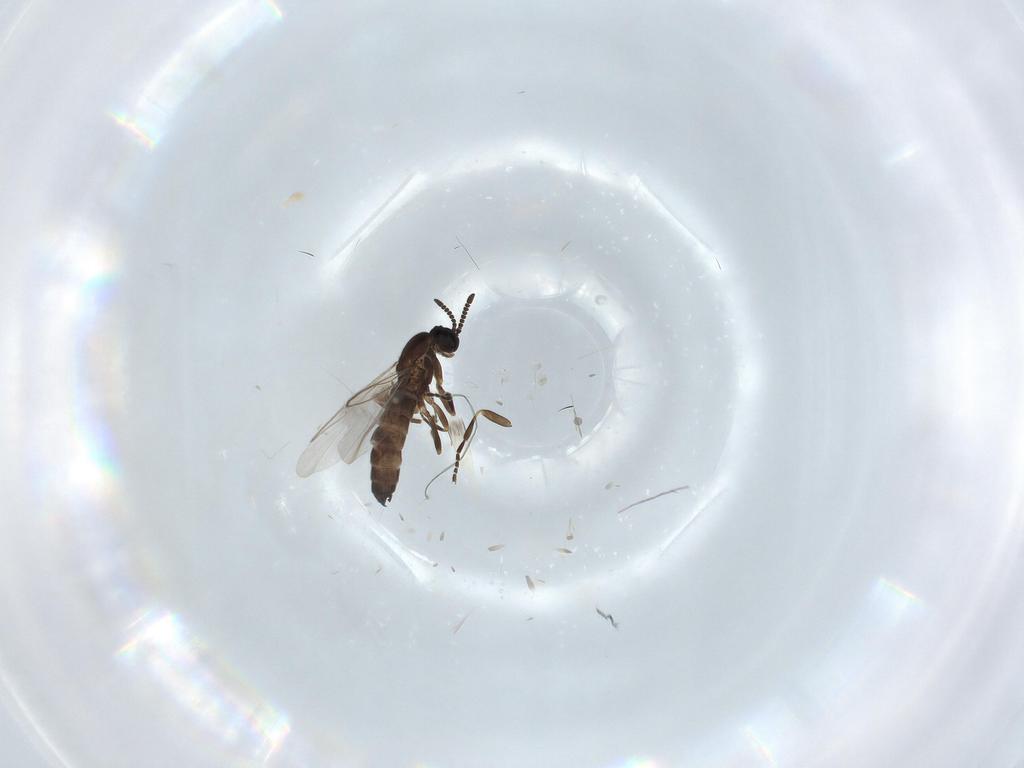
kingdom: Animalia
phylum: Arthropoda
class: Insecta
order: Diptera
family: Scatopsidae
